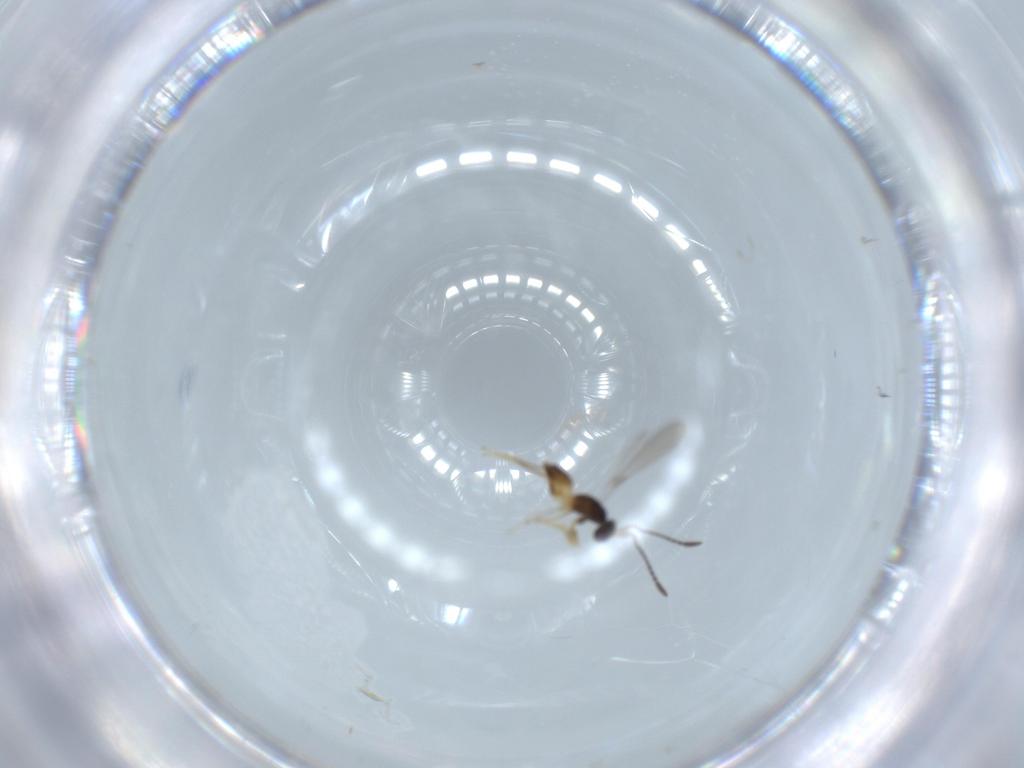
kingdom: Animalia
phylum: Arthropoda
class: Insecta
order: Hymenoptera
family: Mymaridae
